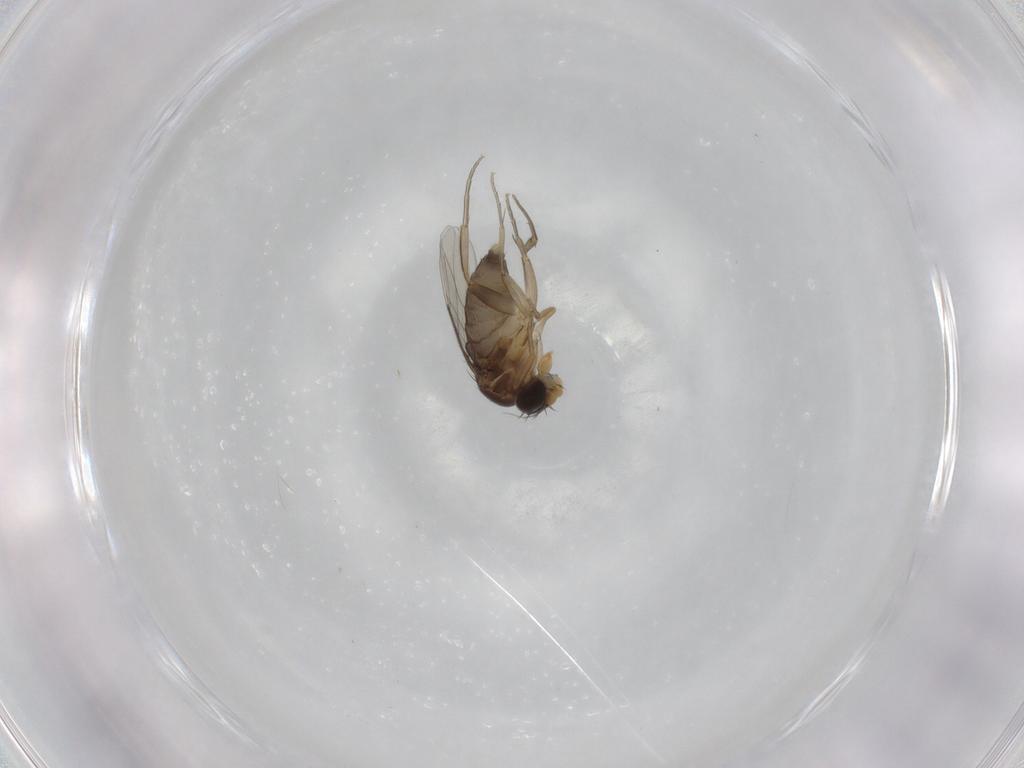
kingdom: Animalia
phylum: Arthropoda
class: Insecta
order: Diptera
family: Phoridae
